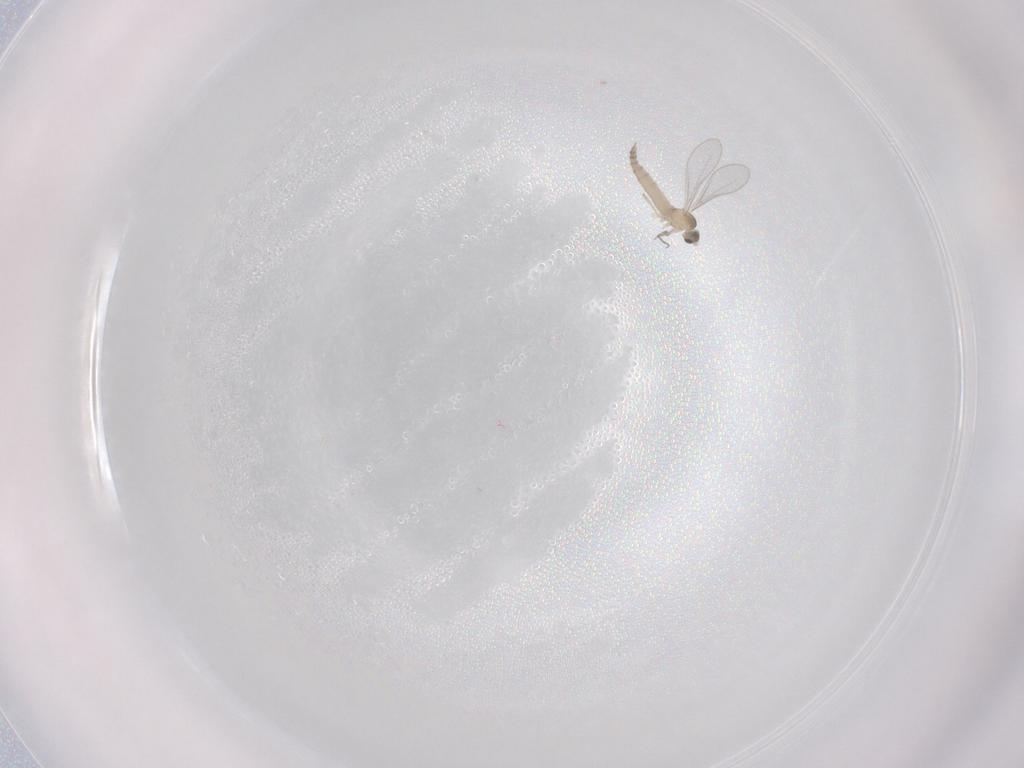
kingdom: Animalia
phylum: Arthropoda
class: Insecta
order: Diptera
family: Cecidomyiidae
